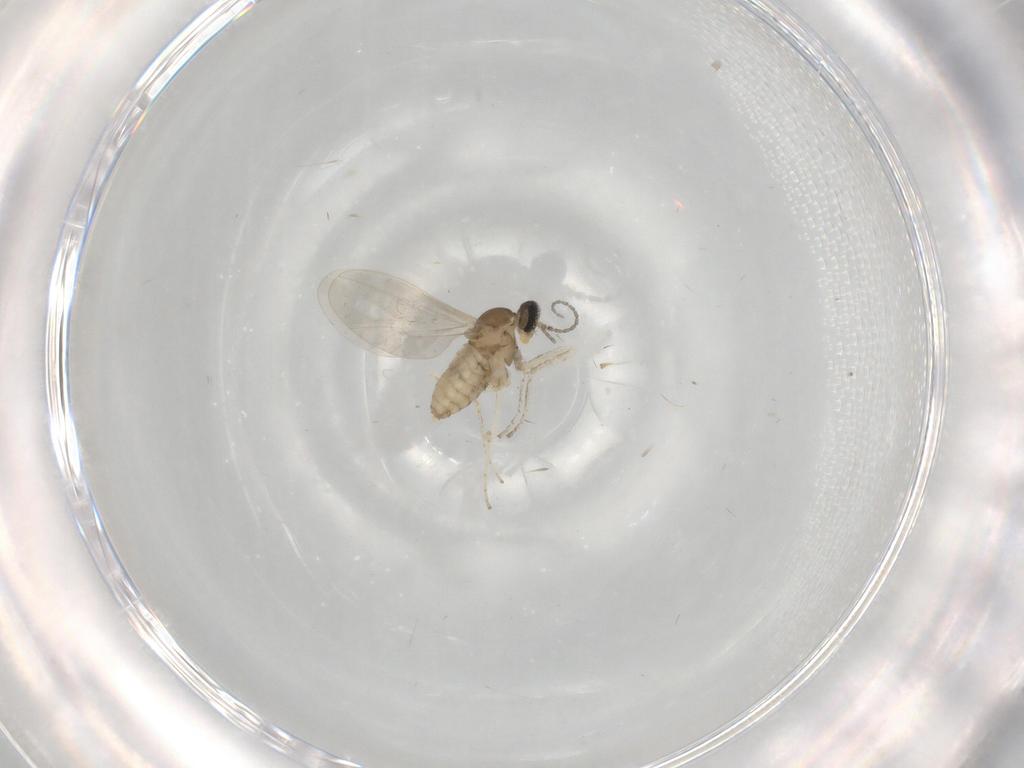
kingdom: Animalia
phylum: Arthropoda
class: Insecta
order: Diptera
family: Cecidomyiidae
